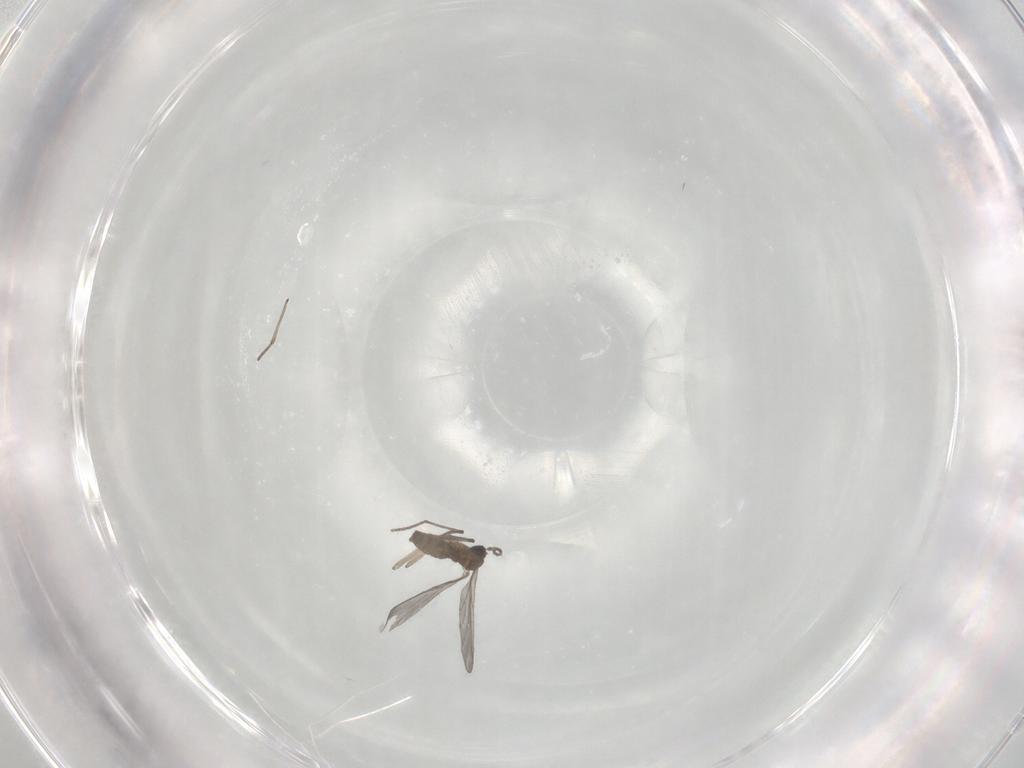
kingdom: Animalia
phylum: Arthropoda
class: Insecta
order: Diptera
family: Sciaridae
